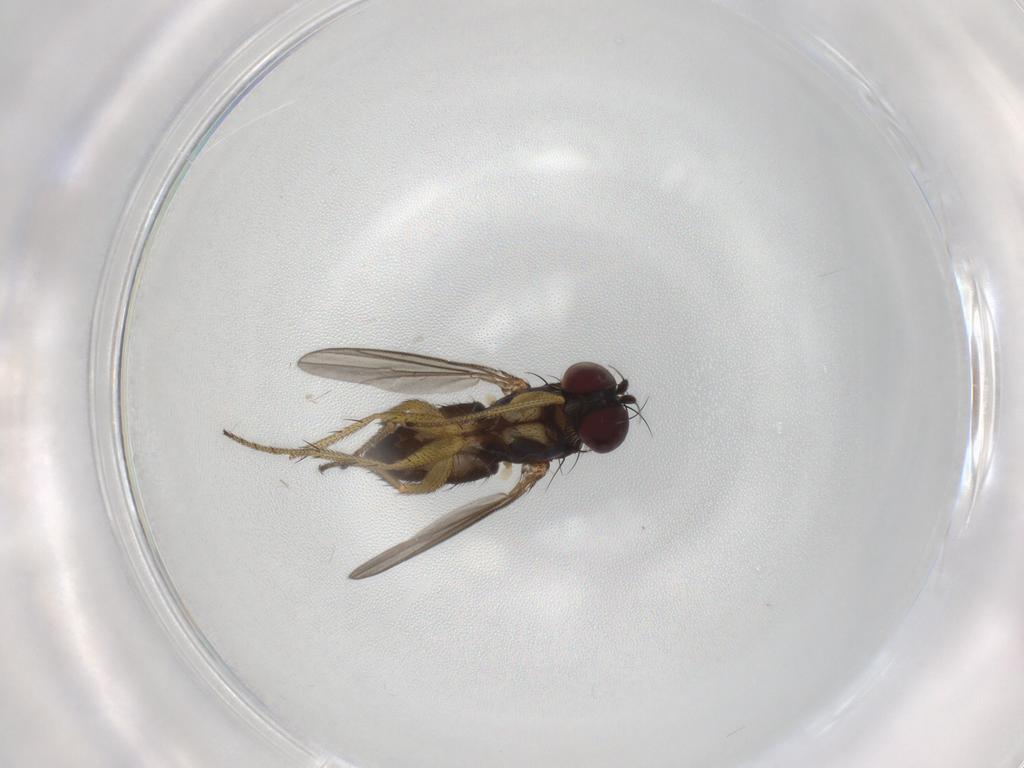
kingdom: Animalia
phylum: Arthropoda
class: Insecta
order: Diptera
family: Dolichopodidae
